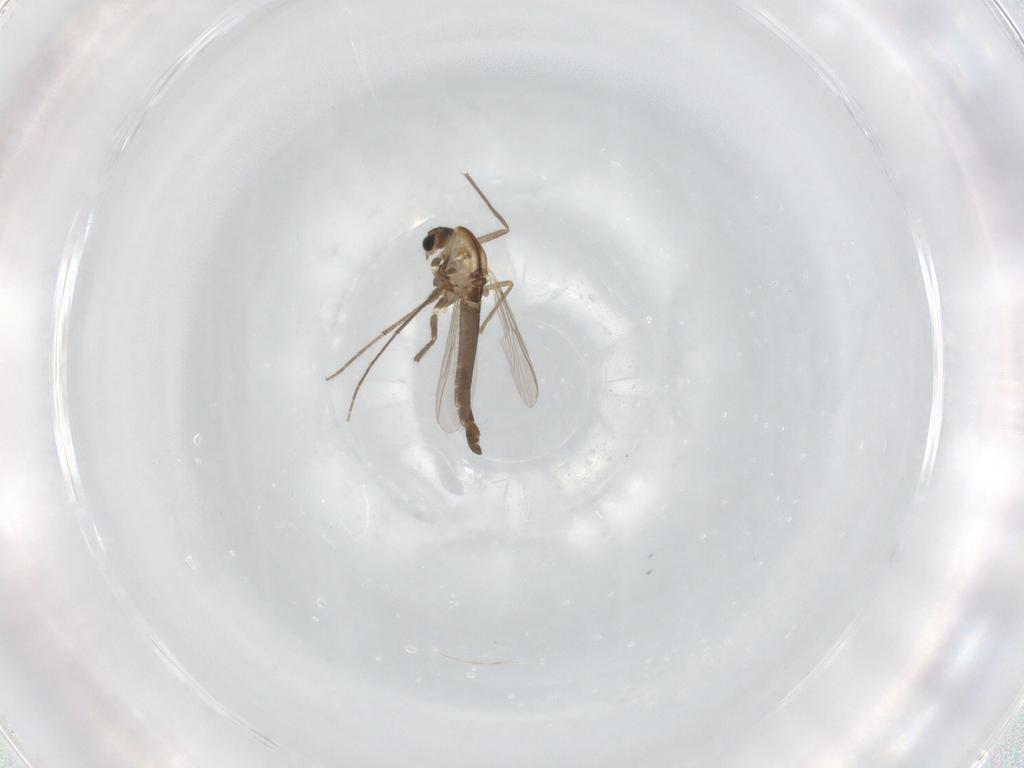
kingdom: Animalia
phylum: Arthropoda
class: Insecta
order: Diptera
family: Chironomidae
